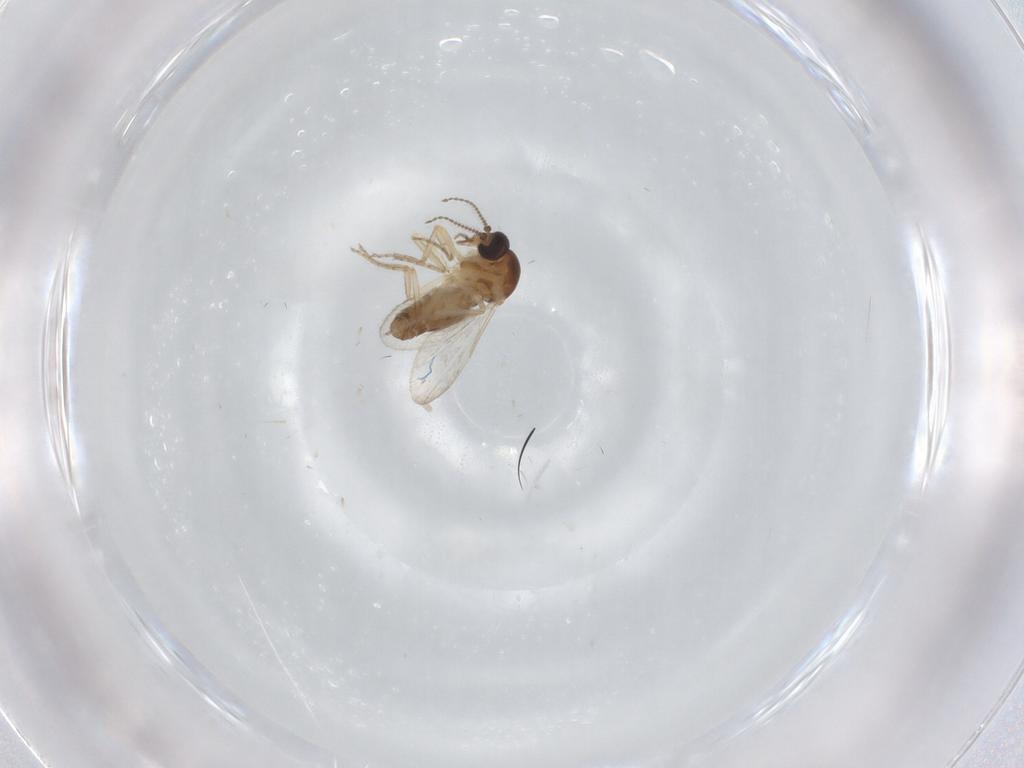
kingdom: Animalia
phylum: Arthropoda
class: Insecta
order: Diptera
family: Ceratopogonidae
